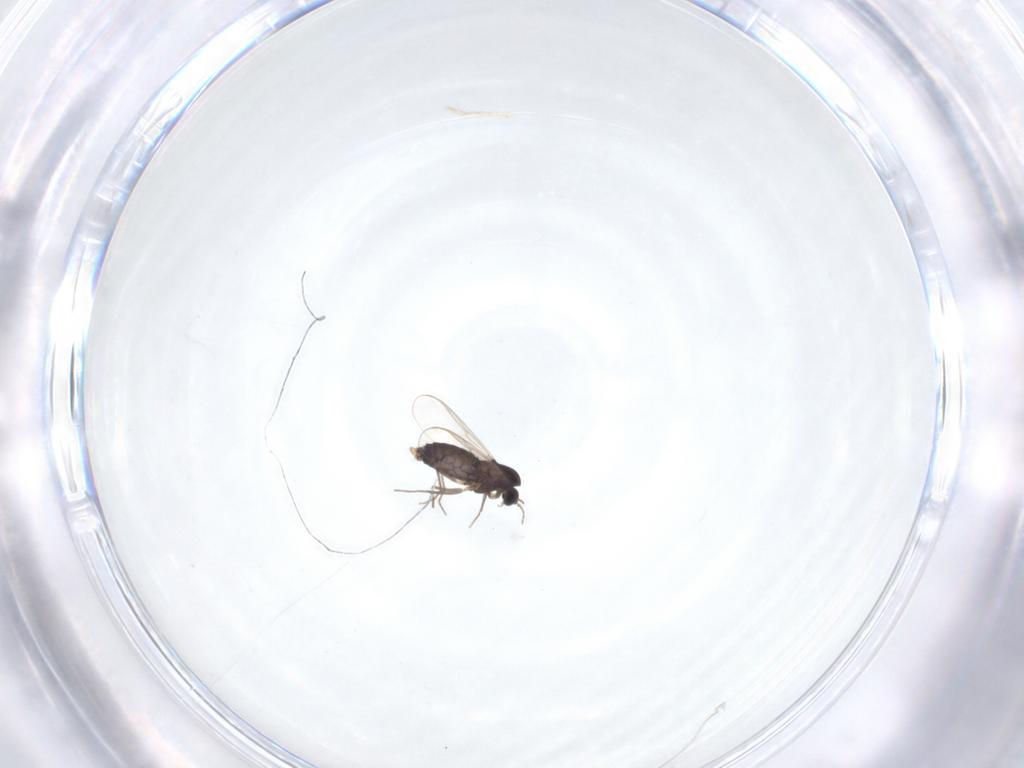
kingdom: Animalia
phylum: Arthropoda
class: Insecta
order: Diptera
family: Chironomidae
